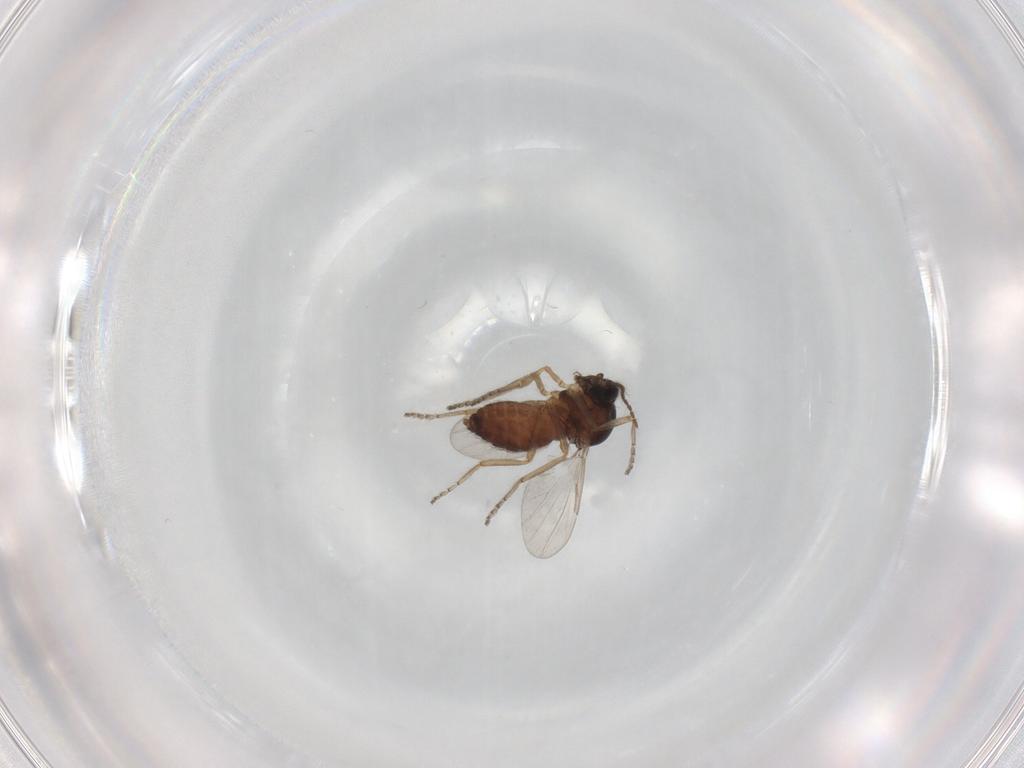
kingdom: Animalia
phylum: Arthropoda
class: Insecta
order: Diptera
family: Ceratopogonidae
